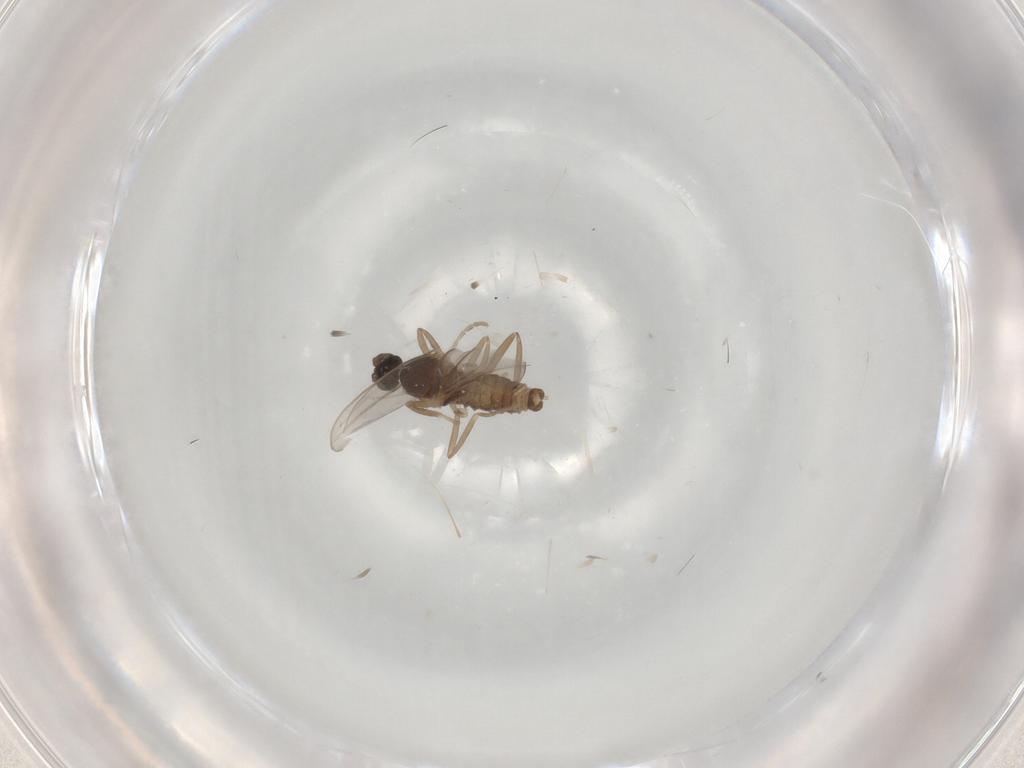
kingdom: Animalia
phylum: Arthropoda
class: Insecta
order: Diptera
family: Cecidomyiidae
